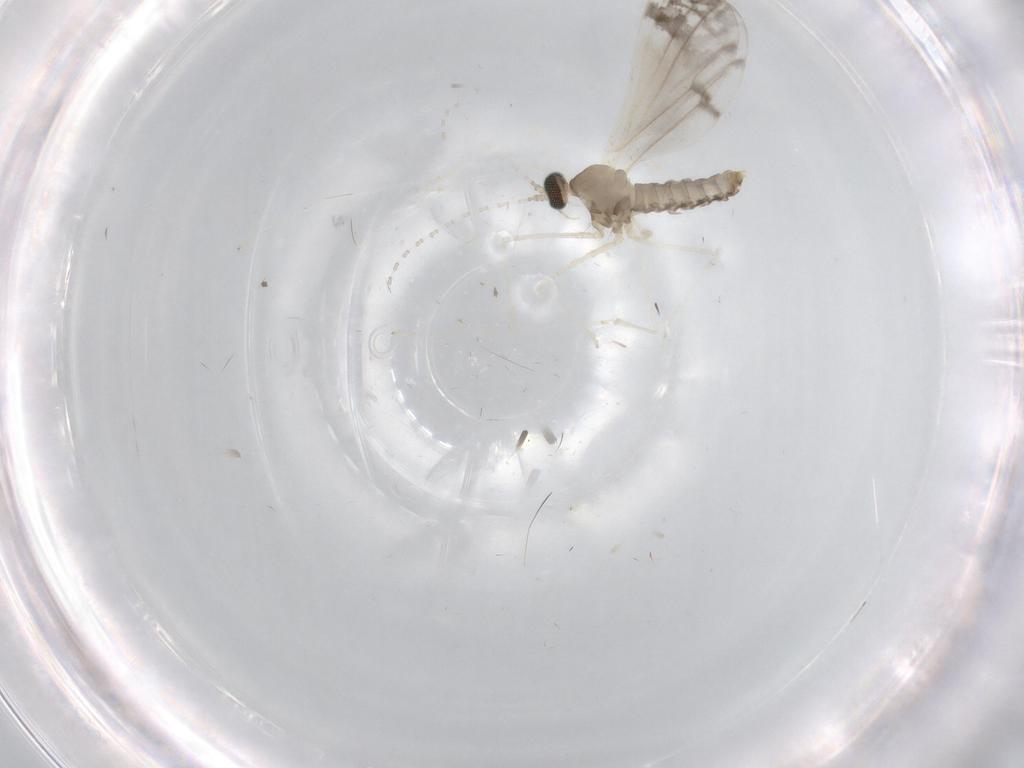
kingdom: Animalia
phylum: Arthropoda
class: Insecta
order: Diptera
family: Cecidomyiidae
